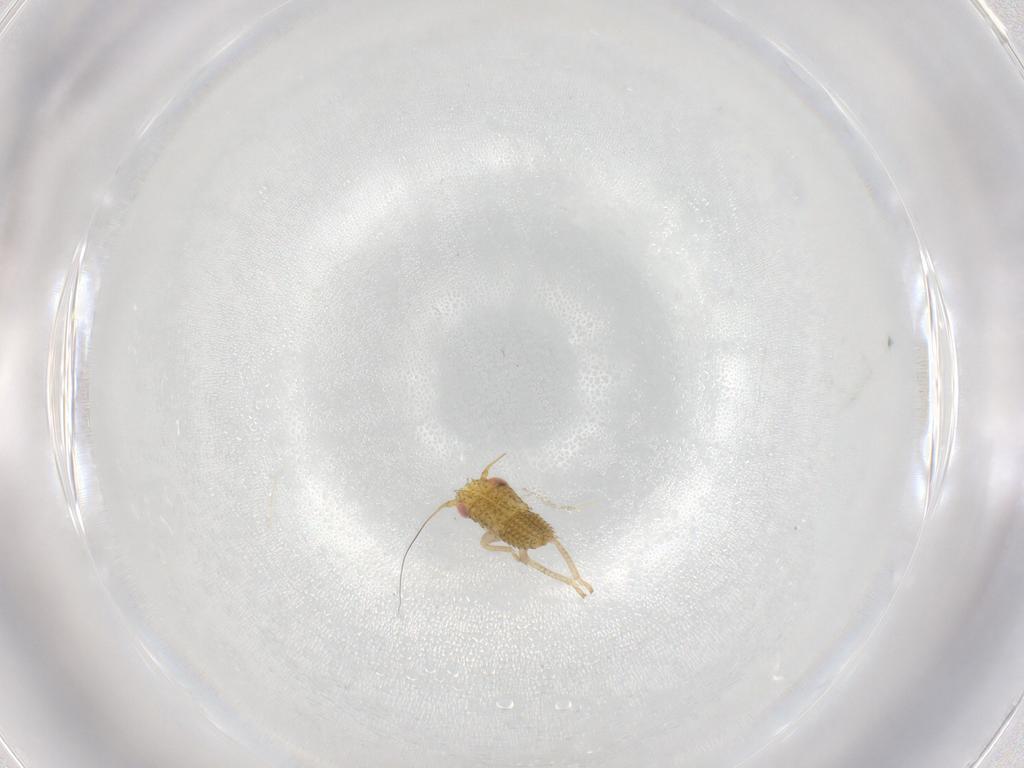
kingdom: Animalia
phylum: Arthropoda
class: Insecta
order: Hemiptera
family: Cicadellidae
